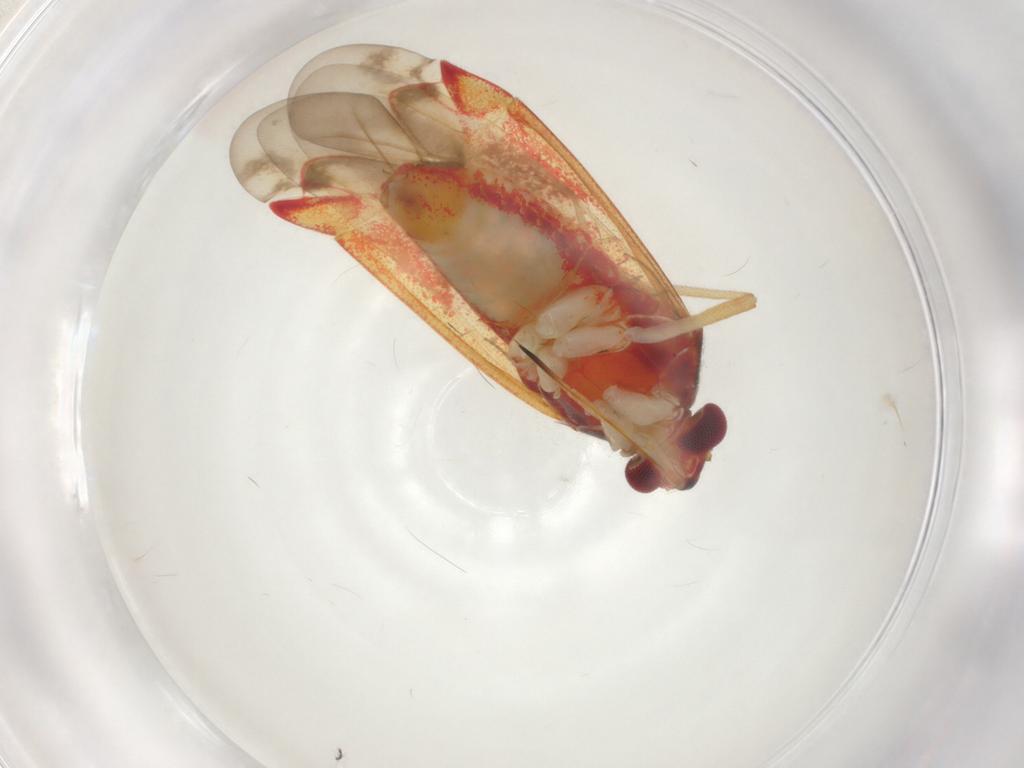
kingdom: Animalia
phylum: Arthropoda
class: Insecta
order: Hemiptera
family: Miridae
